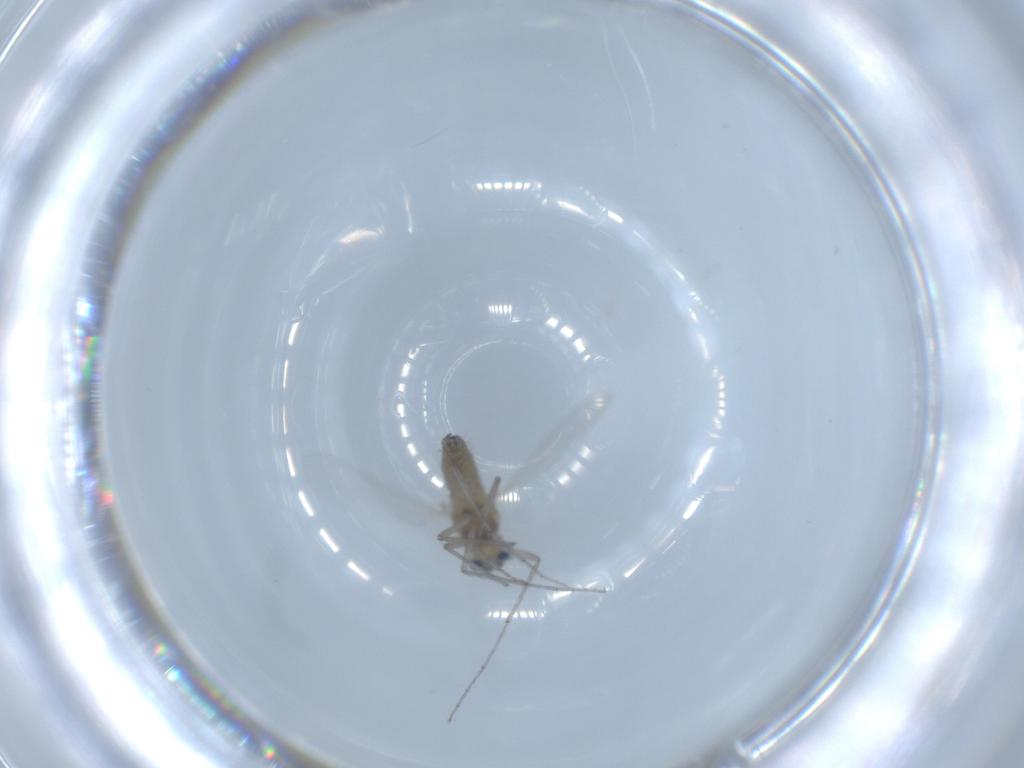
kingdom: Animalia
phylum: Arthropoda
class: Insecta
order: Diptera
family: Chironomidae
